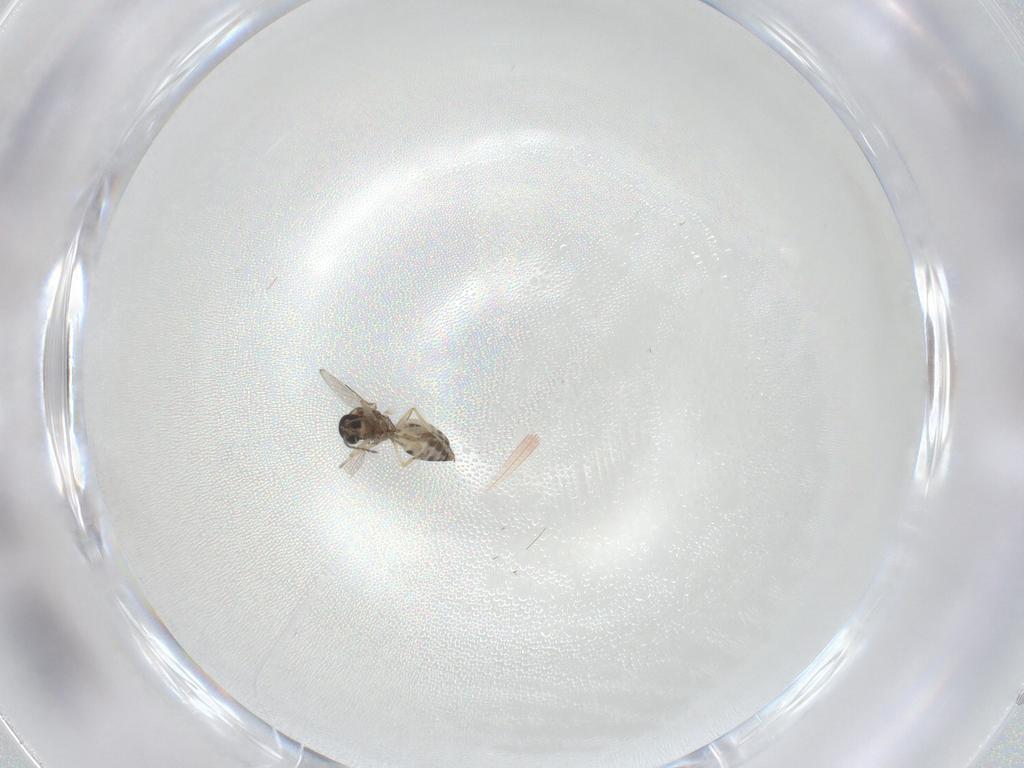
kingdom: Animalia
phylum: Arthropoda
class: Insecta
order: Diptera
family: Ceratopogonidae
